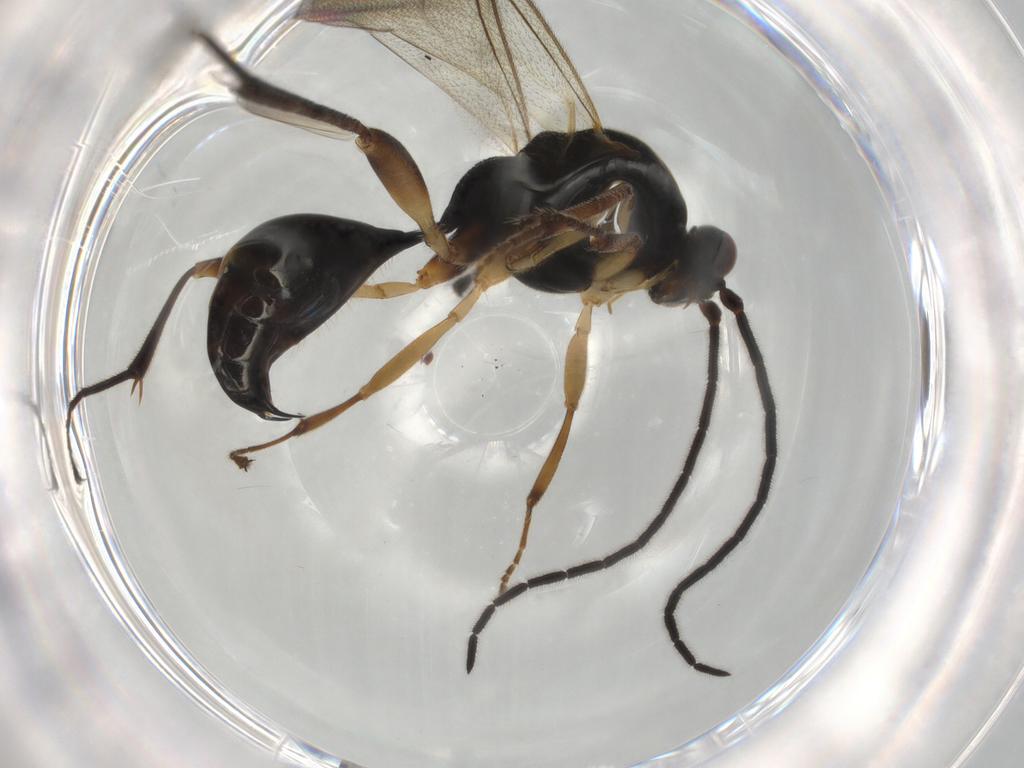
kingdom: Animalia
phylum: Arthropoda
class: Insecta
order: Hymenoptera
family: Proctotrupidae
